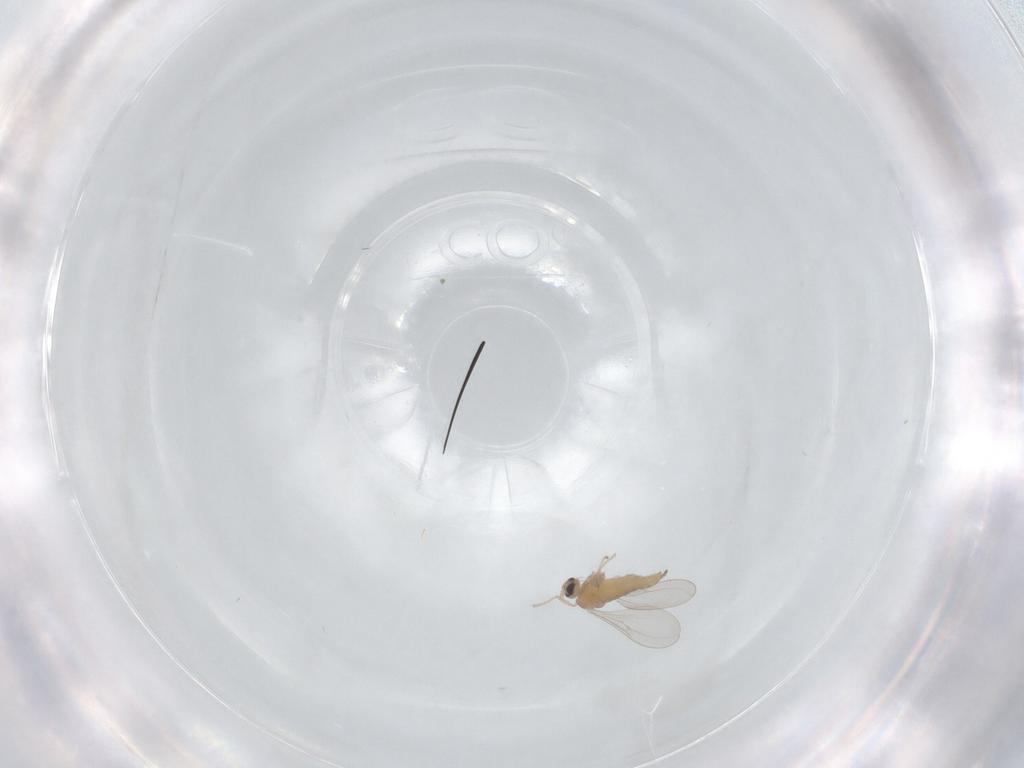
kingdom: Animalia
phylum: Arthropoda
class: Insecta
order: Diptera
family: Cecidomyiidae
